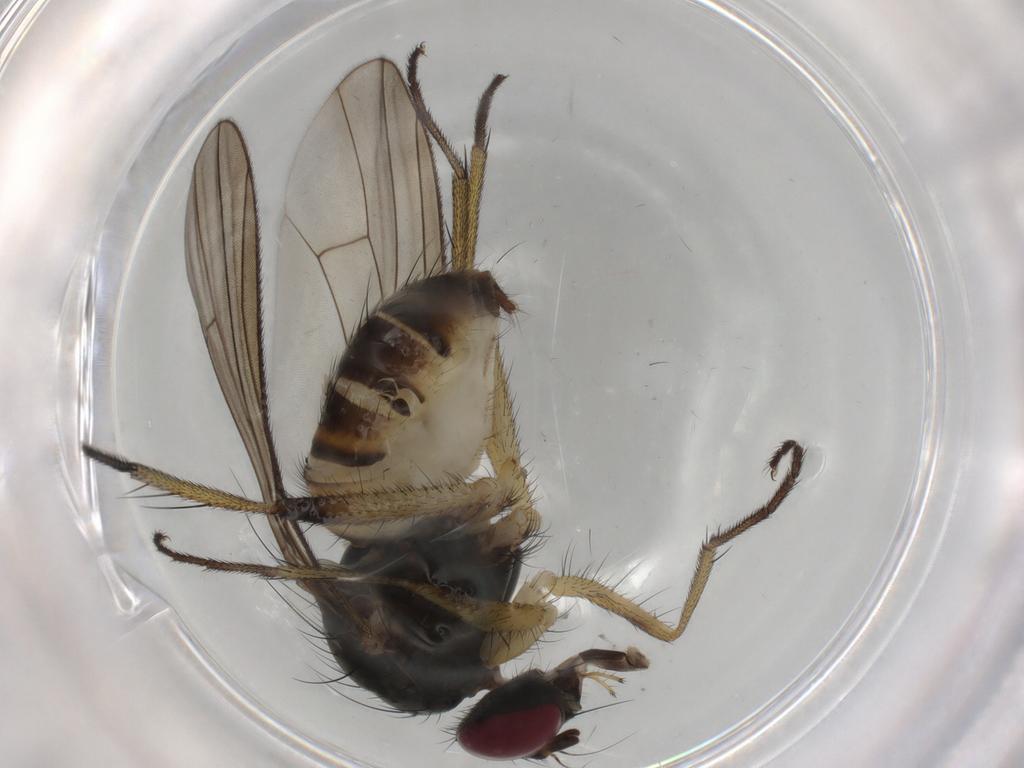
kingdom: Animalia
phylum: Arthropoda
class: Insecta
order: Diptera
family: Muscidae
